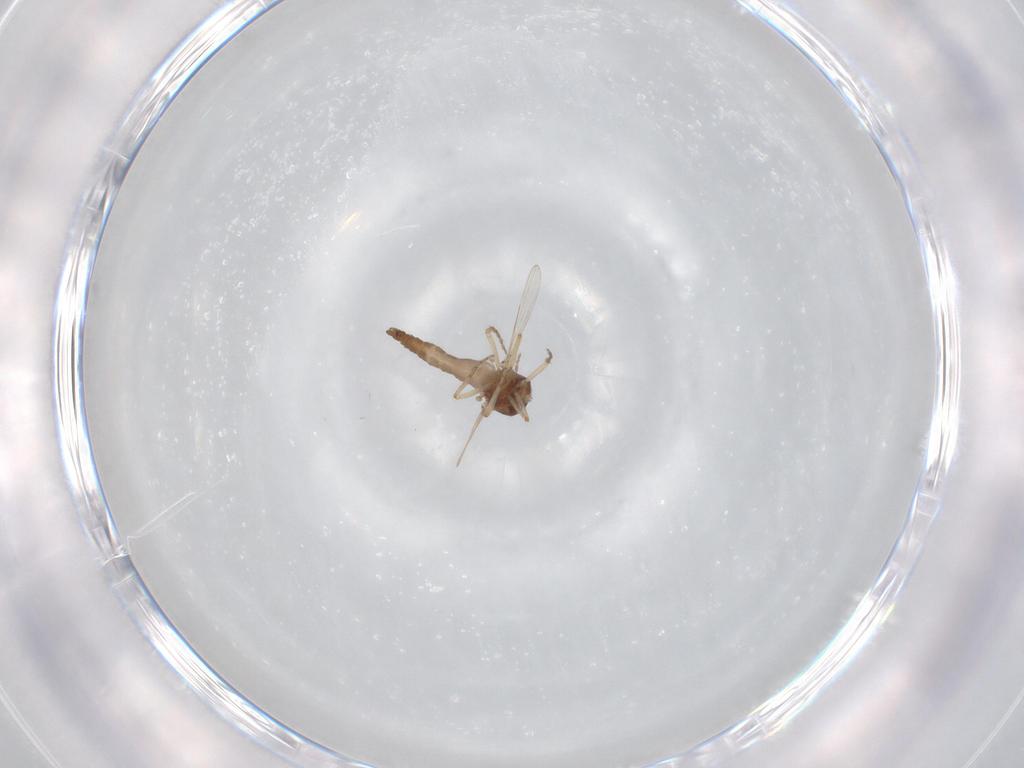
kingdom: Animalia
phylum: Arthropoda
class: Insecta
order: Diptera
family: Ceratopogonidae
